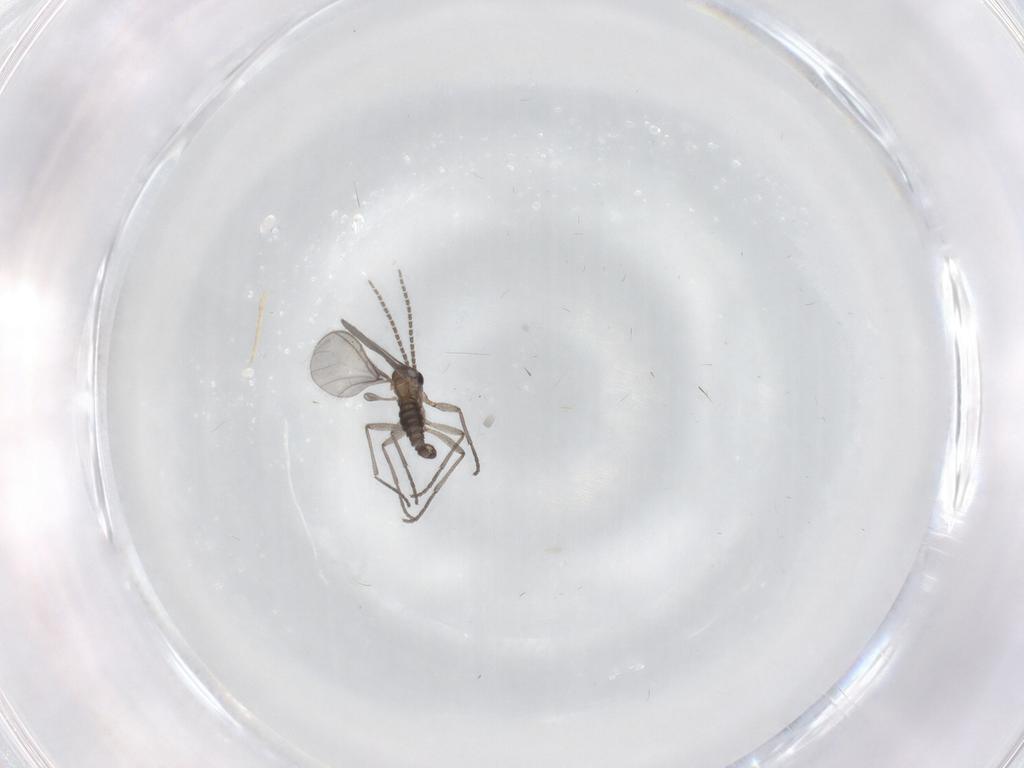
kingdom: Animalia
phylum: Arthropoda
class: Insecta
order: Diptera
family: Sciaridae
